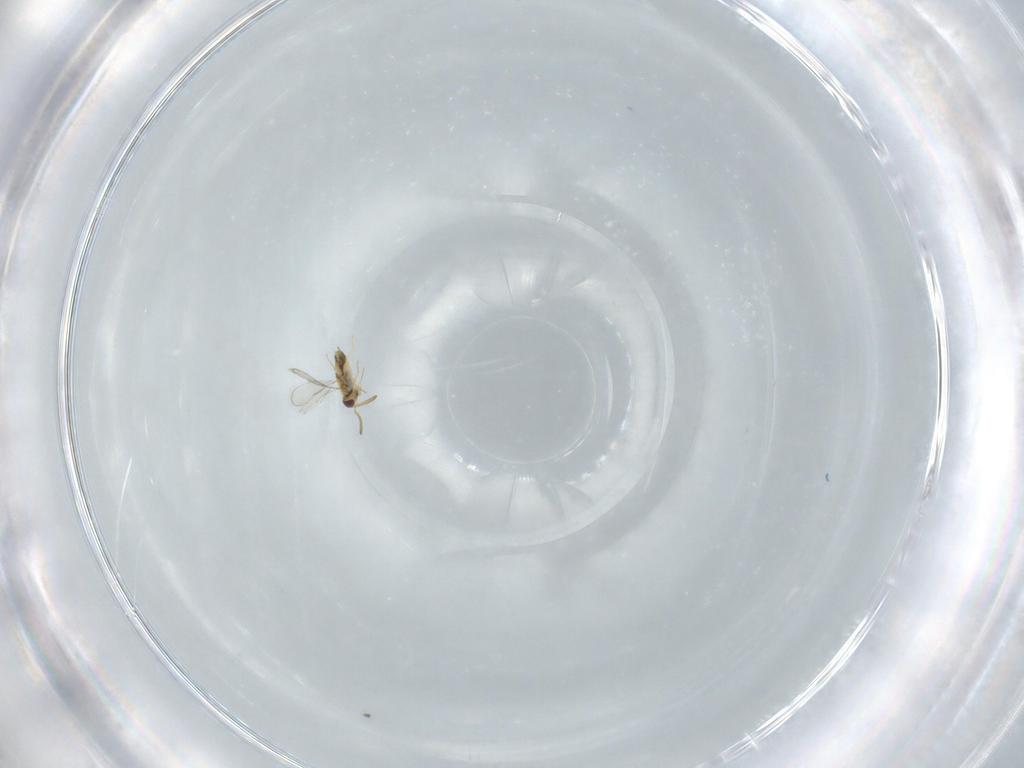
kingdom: Animalia
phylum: Arthropoda
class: Insecta
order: Hymenoptera
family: Aphelinidae
